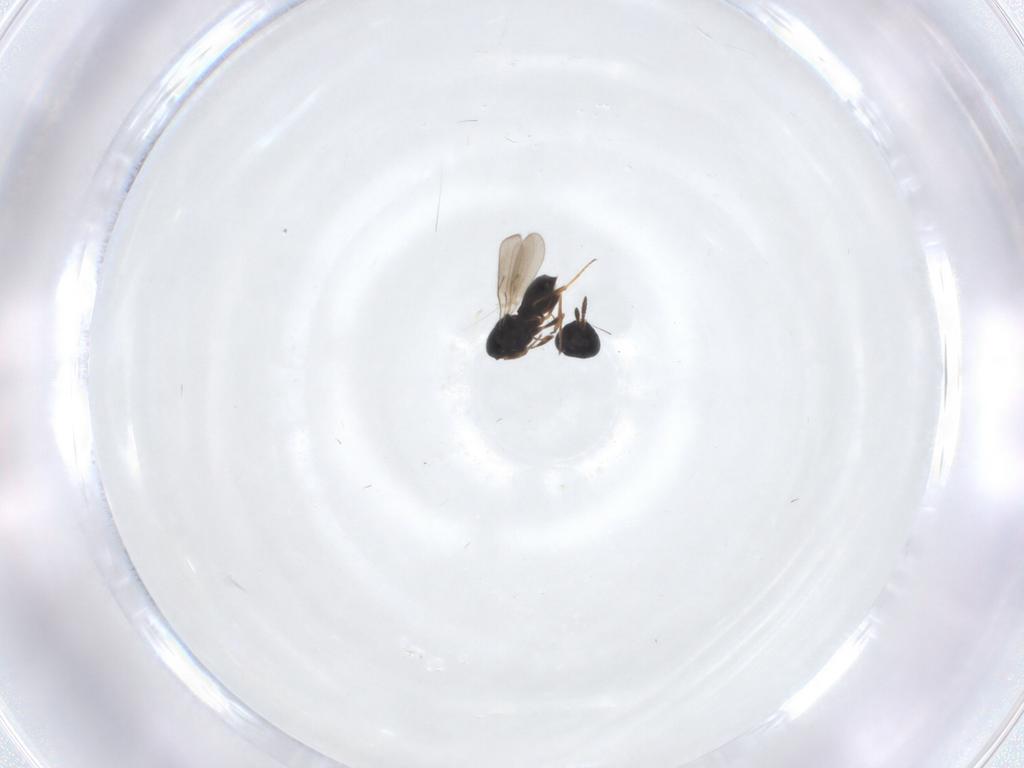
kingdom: Animalia
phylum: Arthropoda
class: Insecta
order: Hymenoptera
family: Scelionidae
